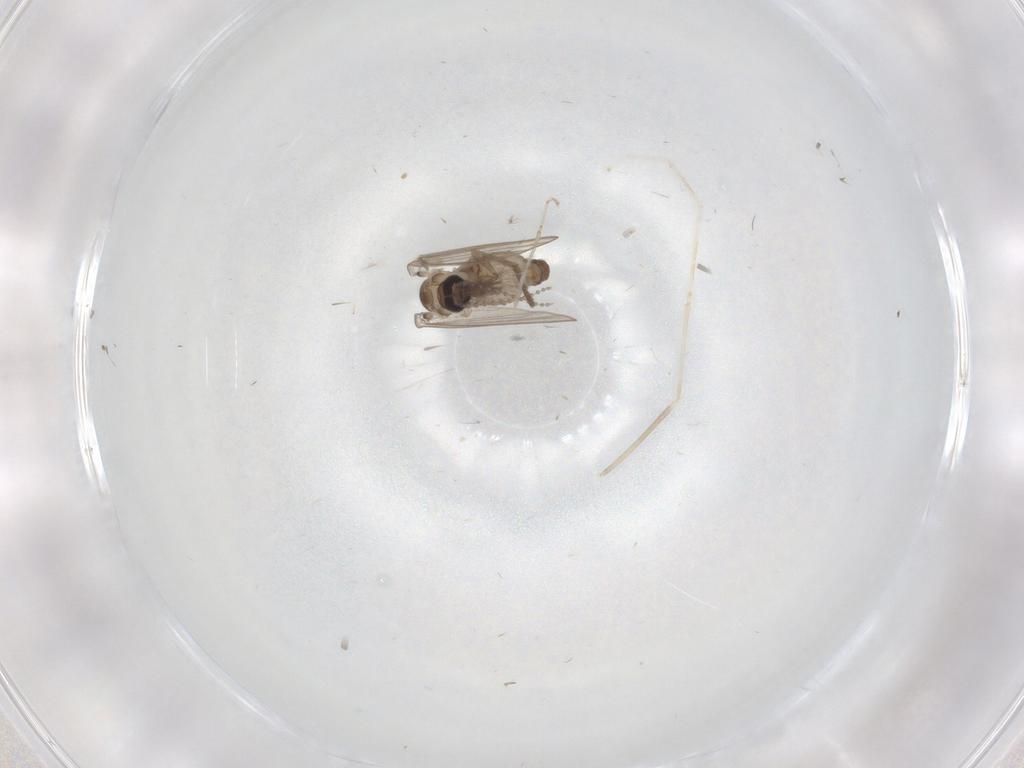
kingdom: Animalia
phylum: Arthropoda
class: Insecta
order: Diptera
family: Psychodidae
